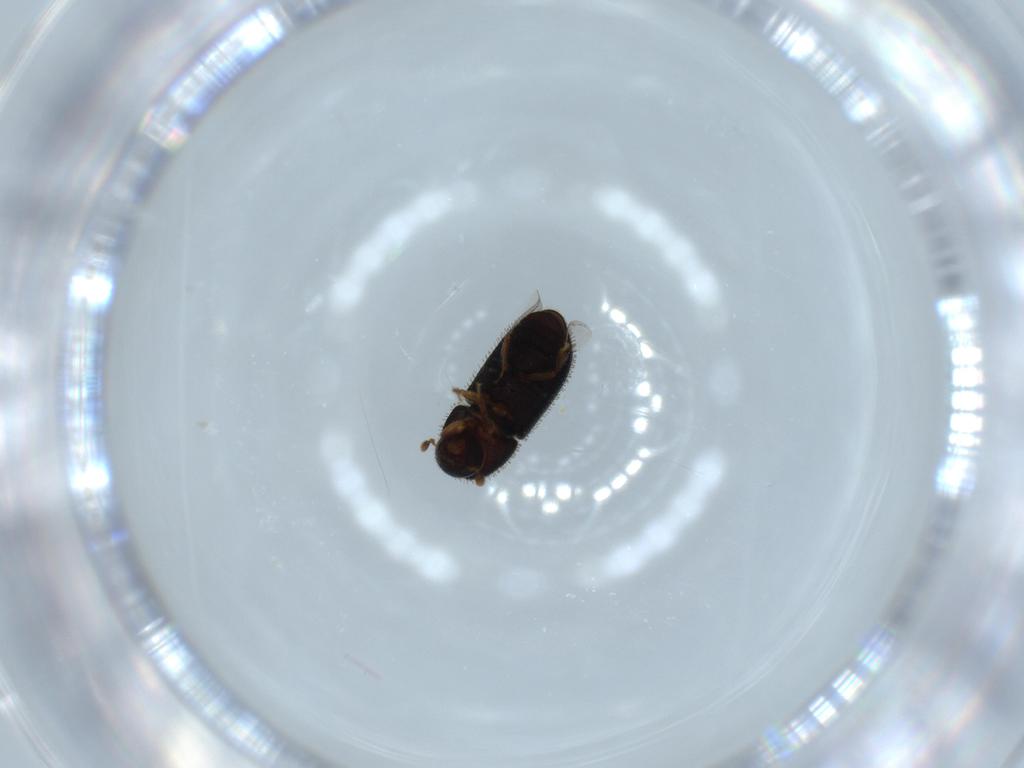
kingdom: Animalia
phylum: Arthropoda
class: Insecta
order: Coleoptera
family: Curculionidae
